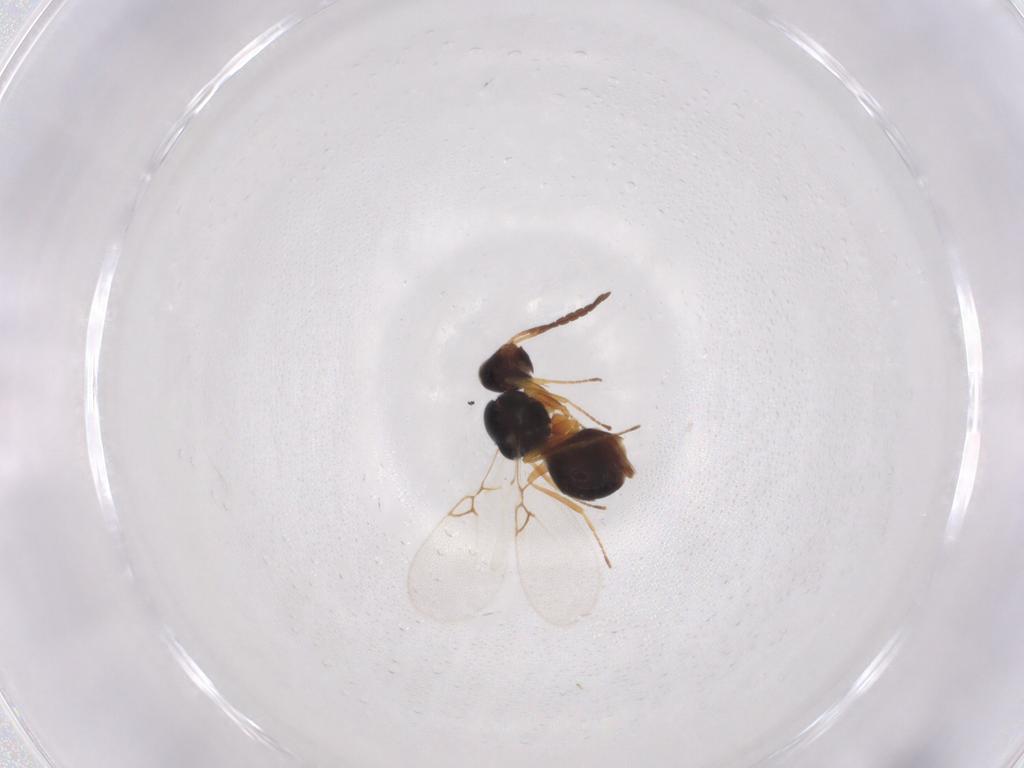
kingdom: Animalia
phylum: Arthropoda
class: Insecta
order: Hymenoptera
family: Figitidae
